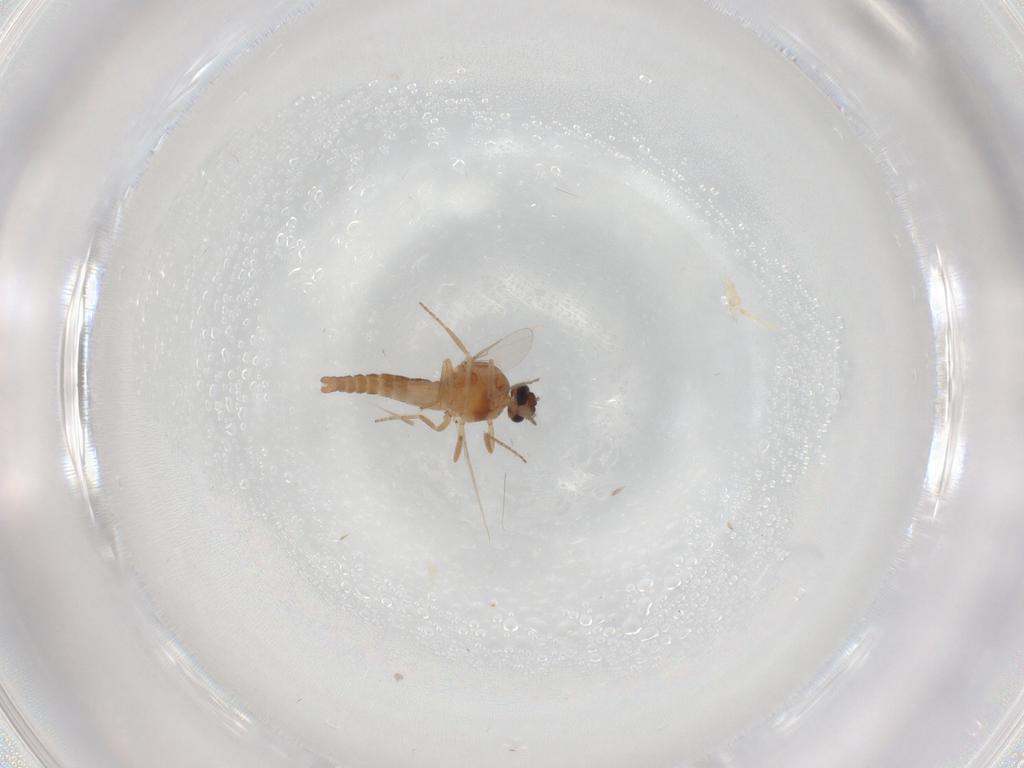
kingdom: Animalia
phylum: Arthropoda
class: Insecta
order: Diptera
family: Ceratopogonidae
